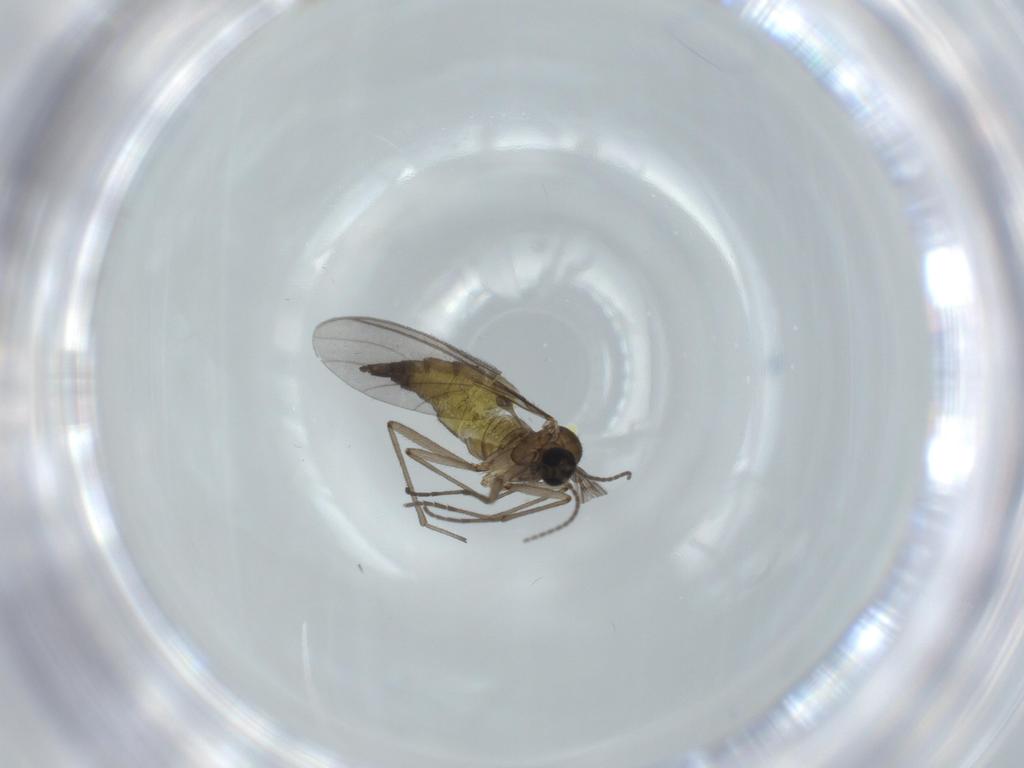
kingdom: Animalia
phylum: Arthropoda
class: Insecta
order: Diptera
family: Sciaridae
